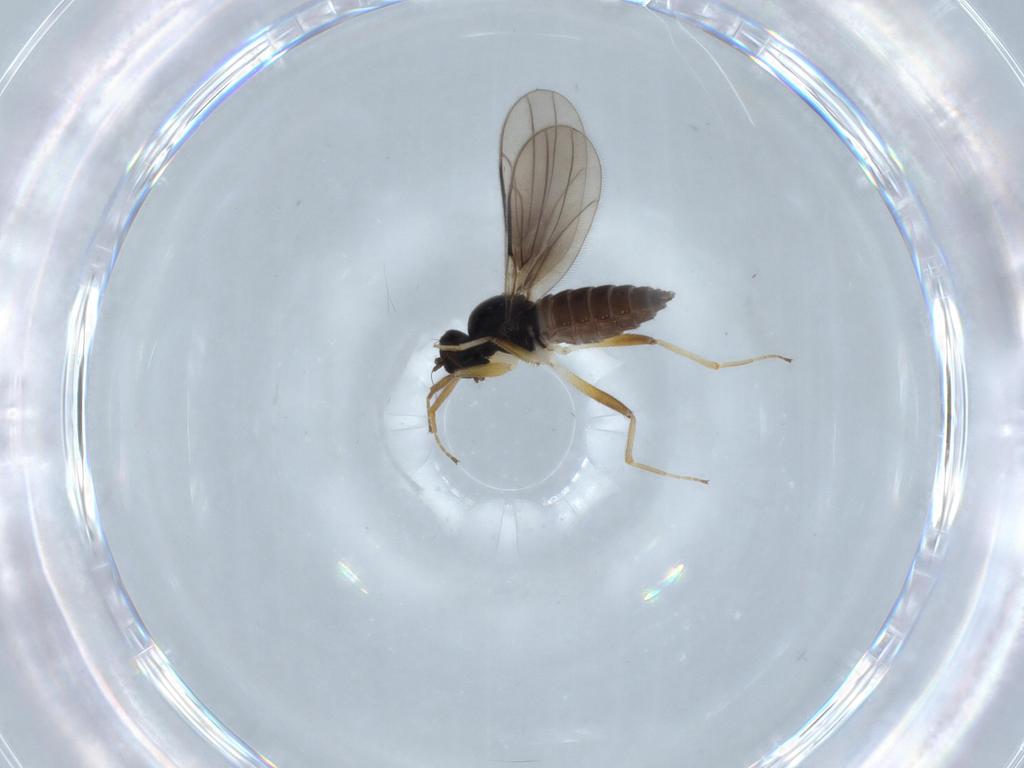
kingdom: Animalia
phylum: Arthropoda
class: Insecta
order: Diptera
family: Hybotidae
